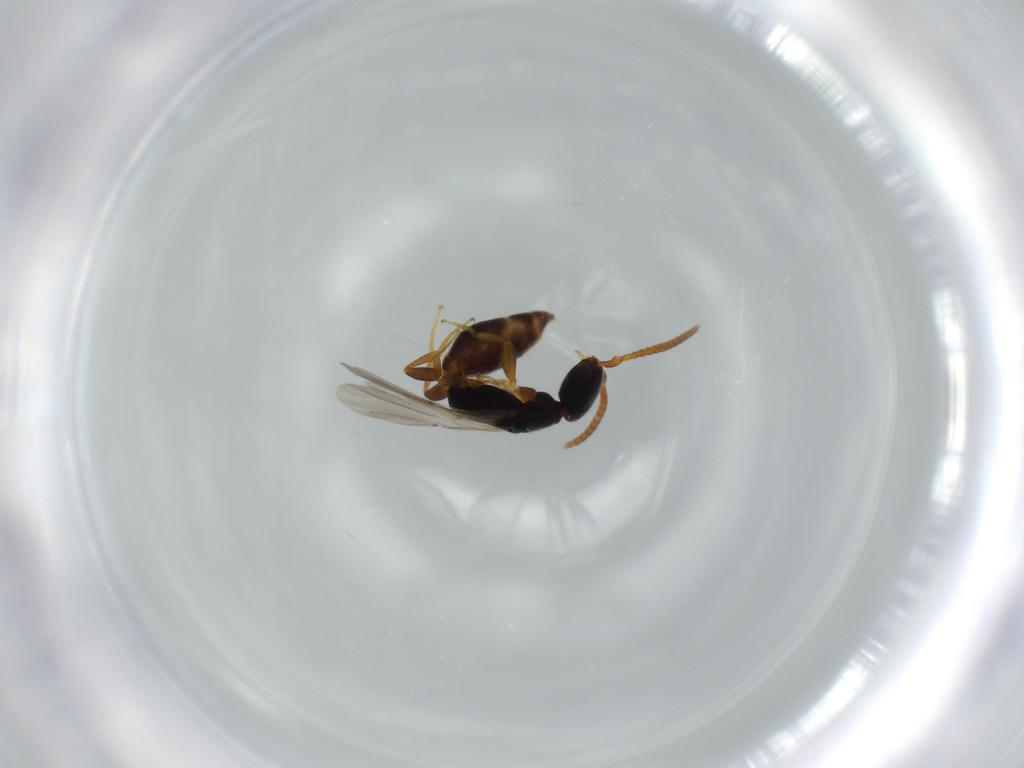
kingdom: Animalia
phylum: Arthropoda
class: Insecta
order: Hymenoptera
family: Bethylidae
